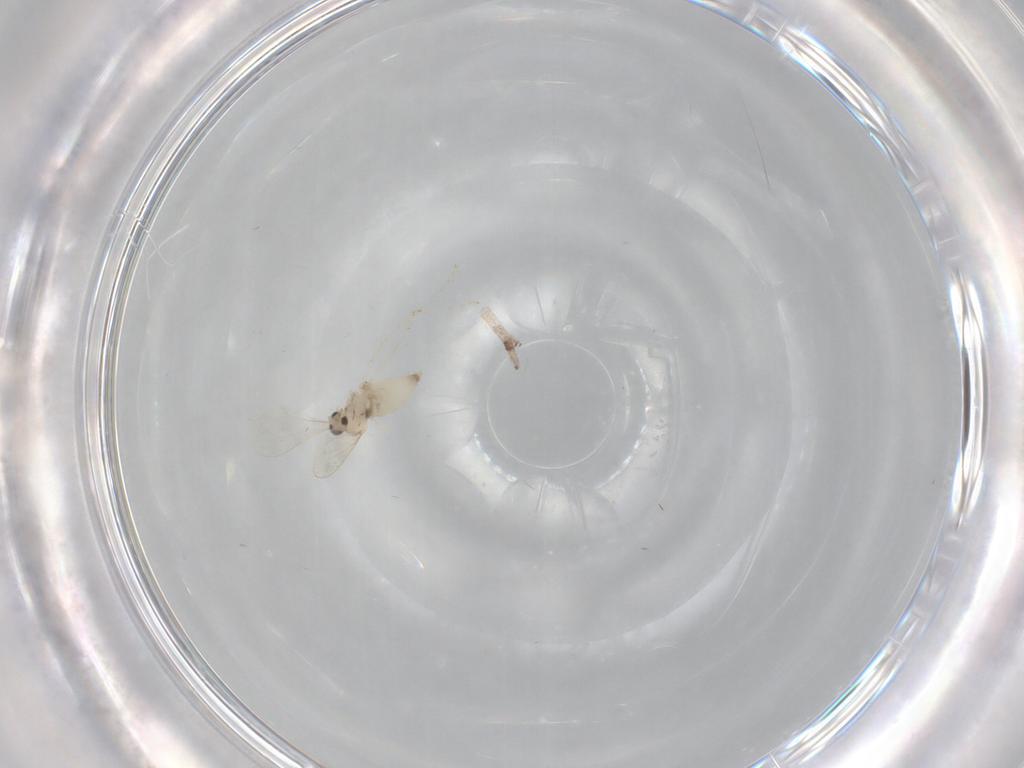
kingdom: Animalia
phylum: Arthropoda
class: Insecta
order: Diptera
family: Cecidomyiidae
